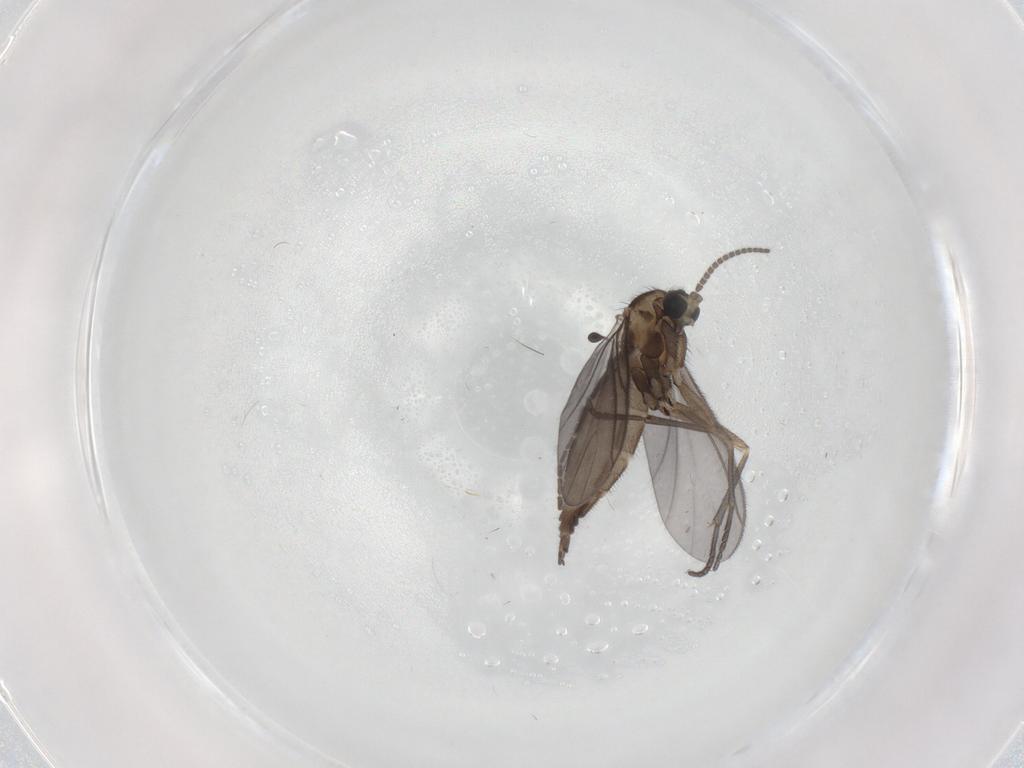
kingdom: Animalia
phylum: Arthropoda
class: Insecta
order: Diptera
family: Sciaridae
